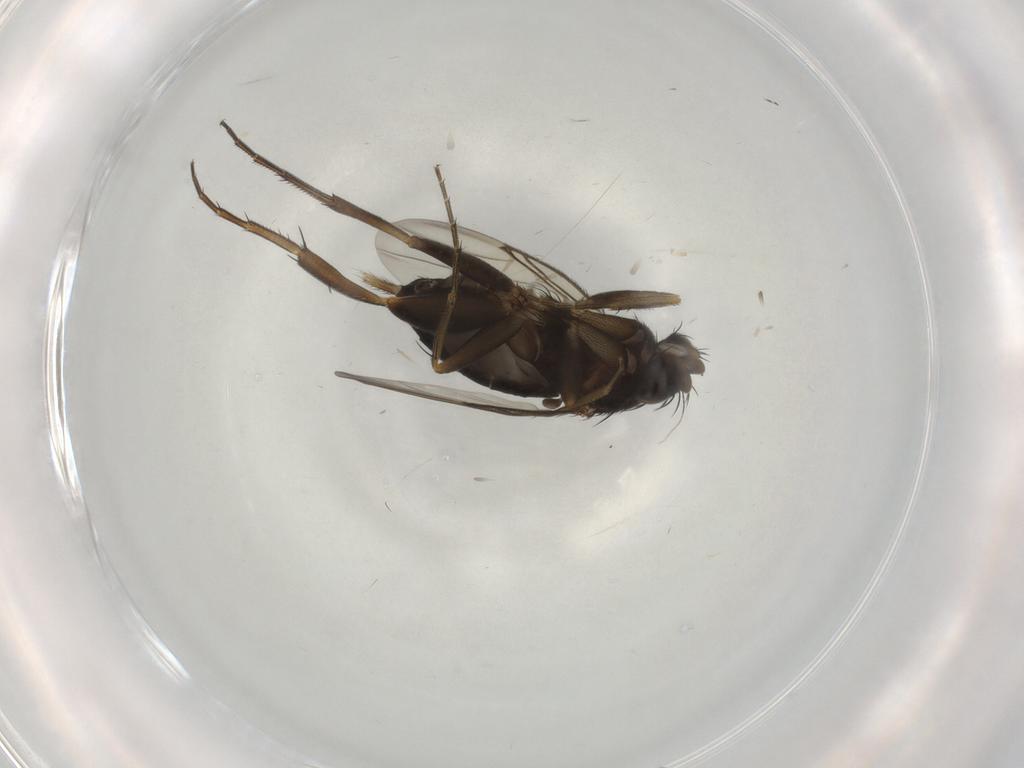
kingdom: Animalia
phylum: Arthropoda
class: Insecta
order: Diptera
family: Phoridae
